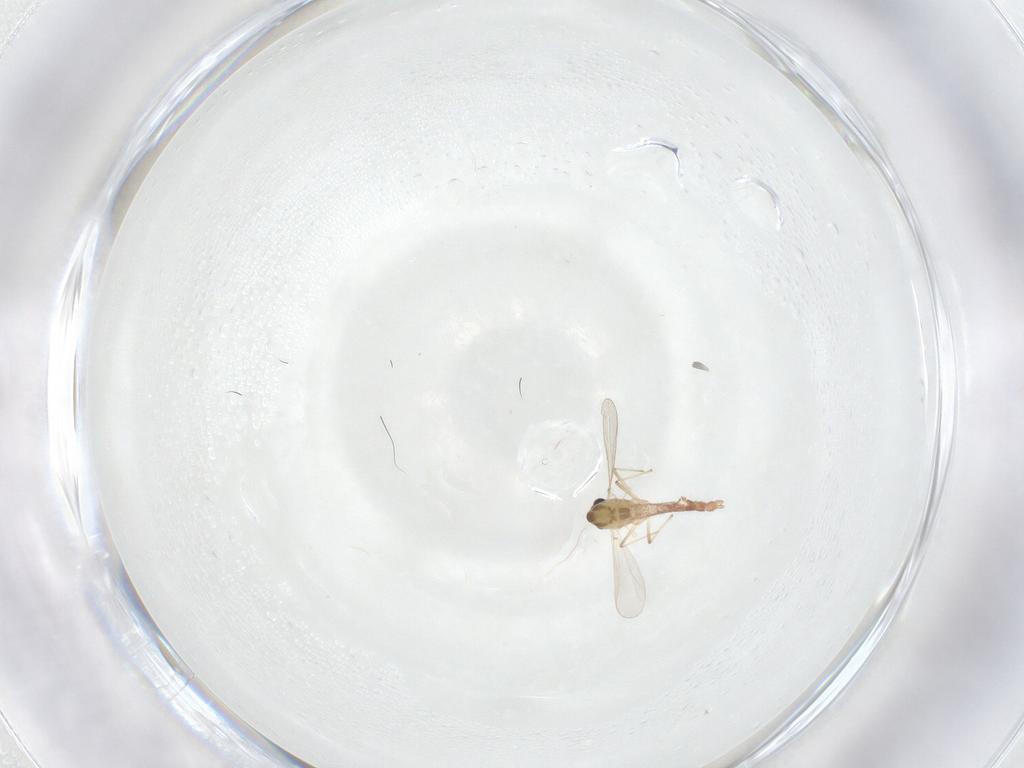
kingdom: Animalia
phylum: Arthropoda
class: Insecta
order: Diptera
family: Chironomidae
